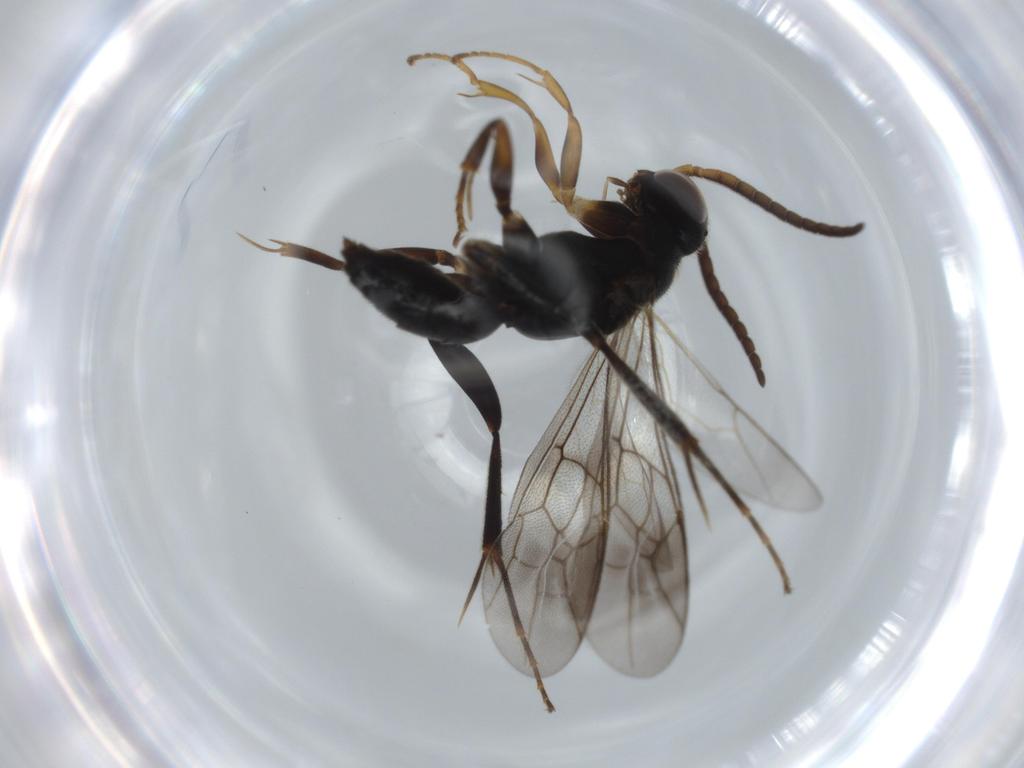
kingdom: Animalia
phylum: Arthropoda
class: Insecta
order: Hymenoptera
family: Pompilidae
